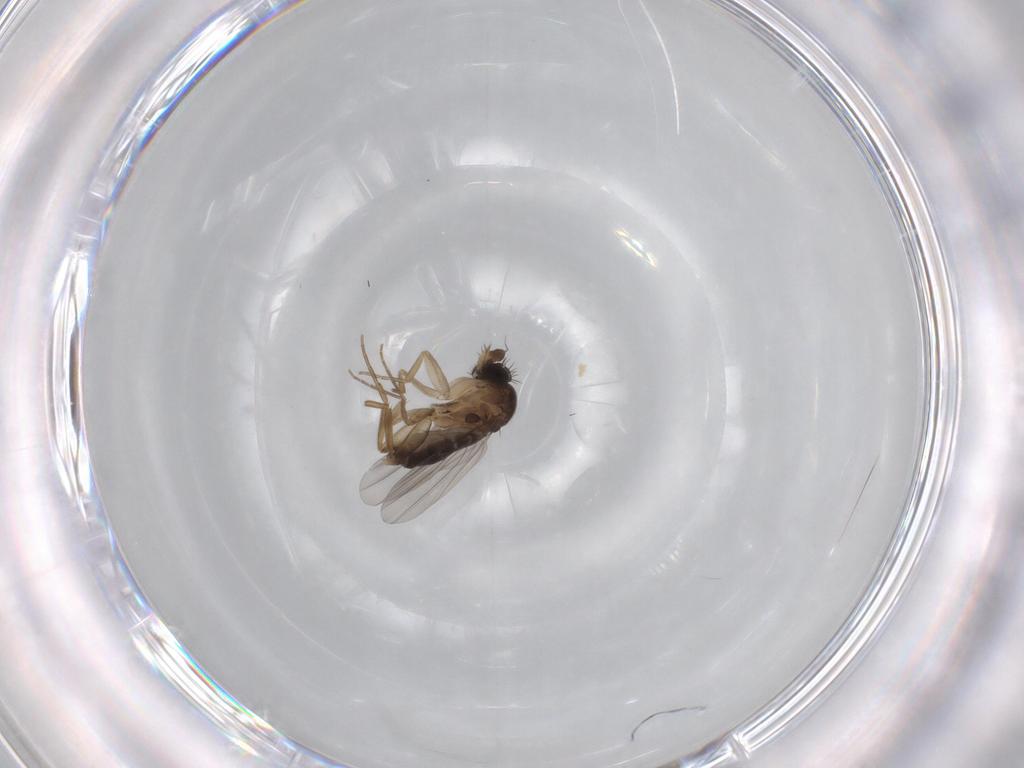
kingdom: Animalia
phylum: Arthropoda
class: Insecta
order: Diptera
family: Phoridae
